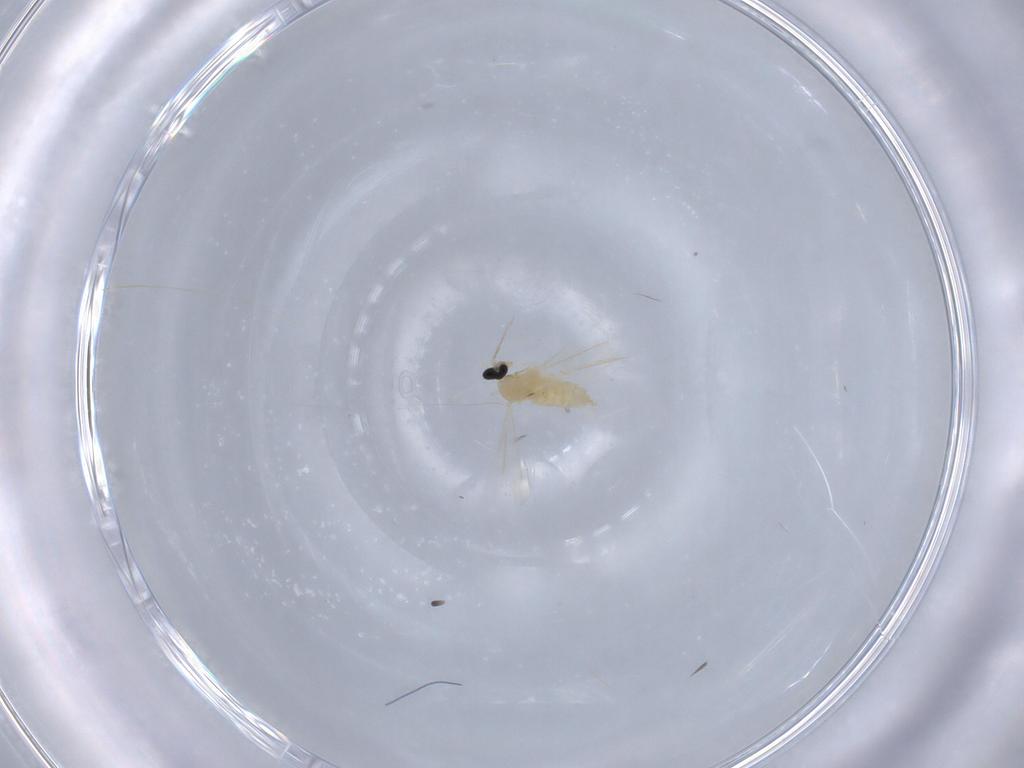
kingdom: Animalia
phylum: Arthropoda
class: Insecta
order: Diptera
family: Cecidomyiidae
